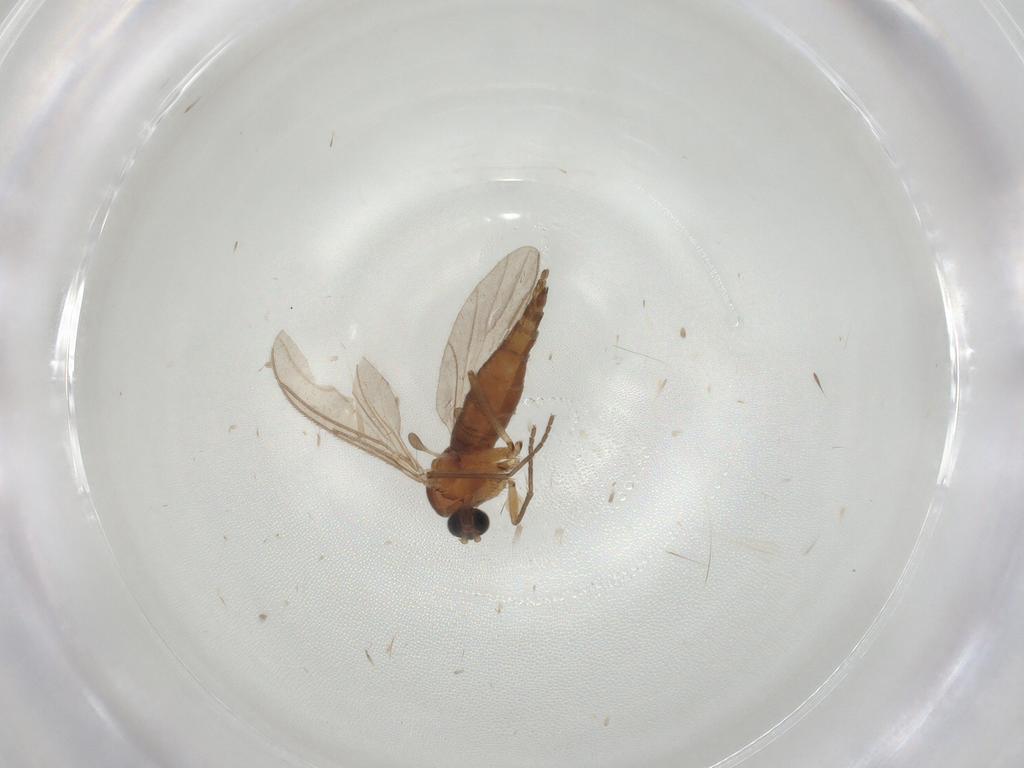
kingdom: Animalia
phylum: Arthropoda
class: Insecta
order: Diptera
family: Sciaridae
